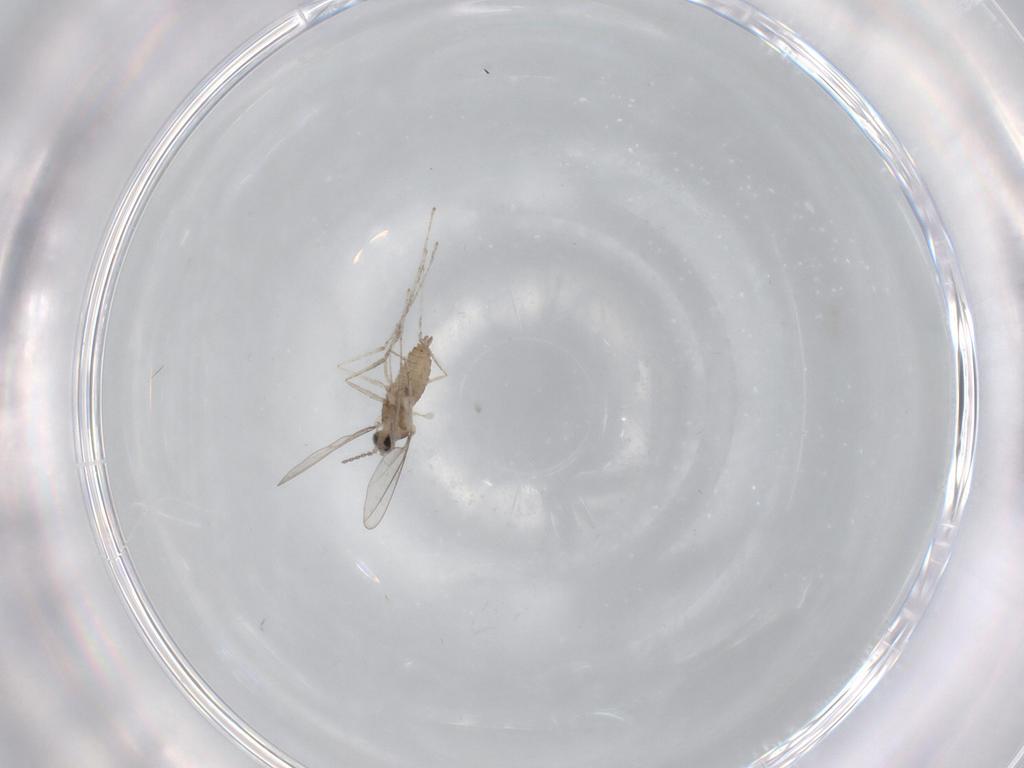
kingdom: Animalia
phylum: Arthropoda
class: Insecta
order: Diptera
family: Cecidomyiidae
